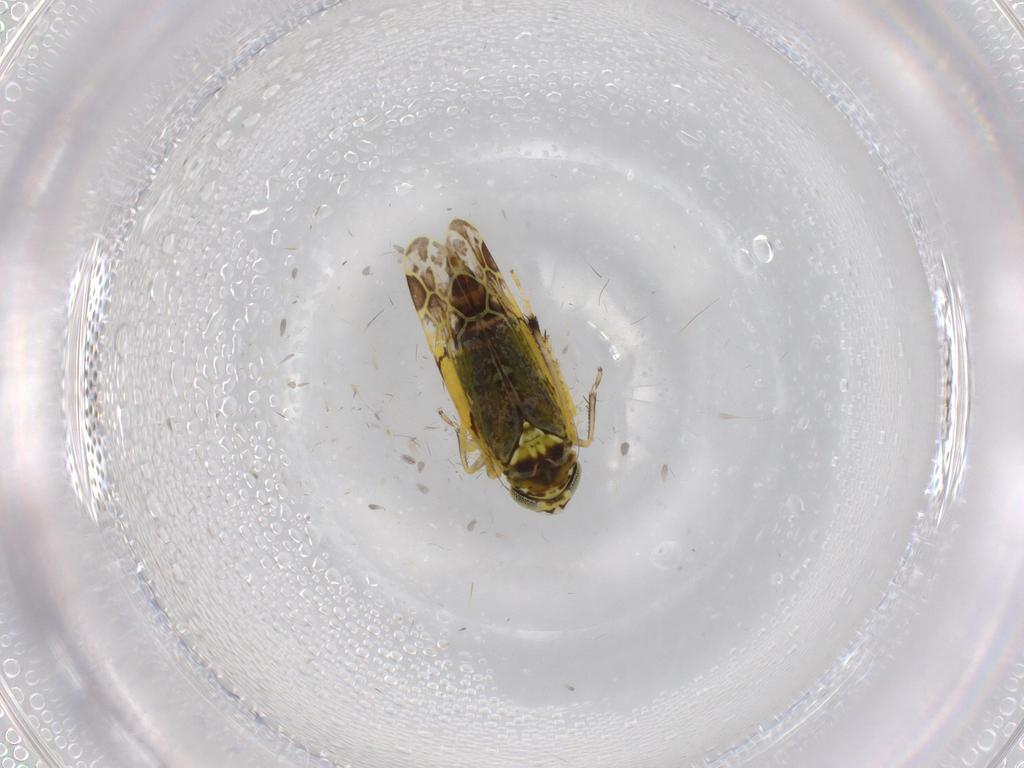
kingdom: Animalia
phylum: Arthropoda
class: Insecta
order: Hemiptera
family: Cicadellidae
